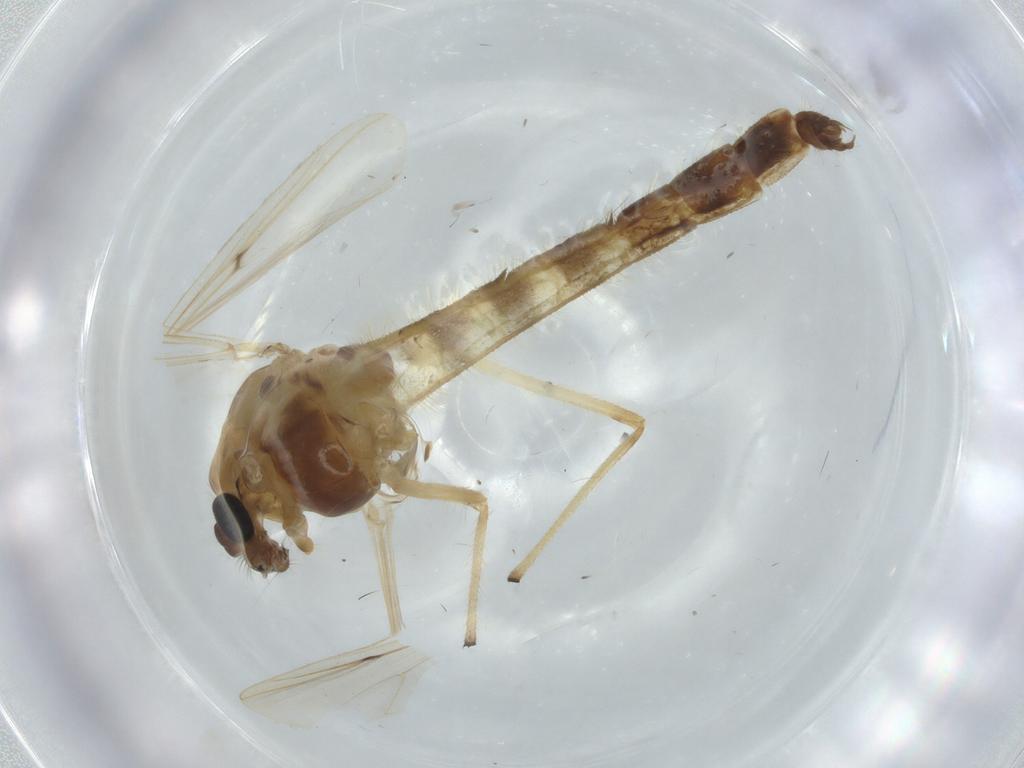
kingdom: Animalia
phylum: Arthropoda
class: Insecta
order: Diptera
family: Chironomidae
